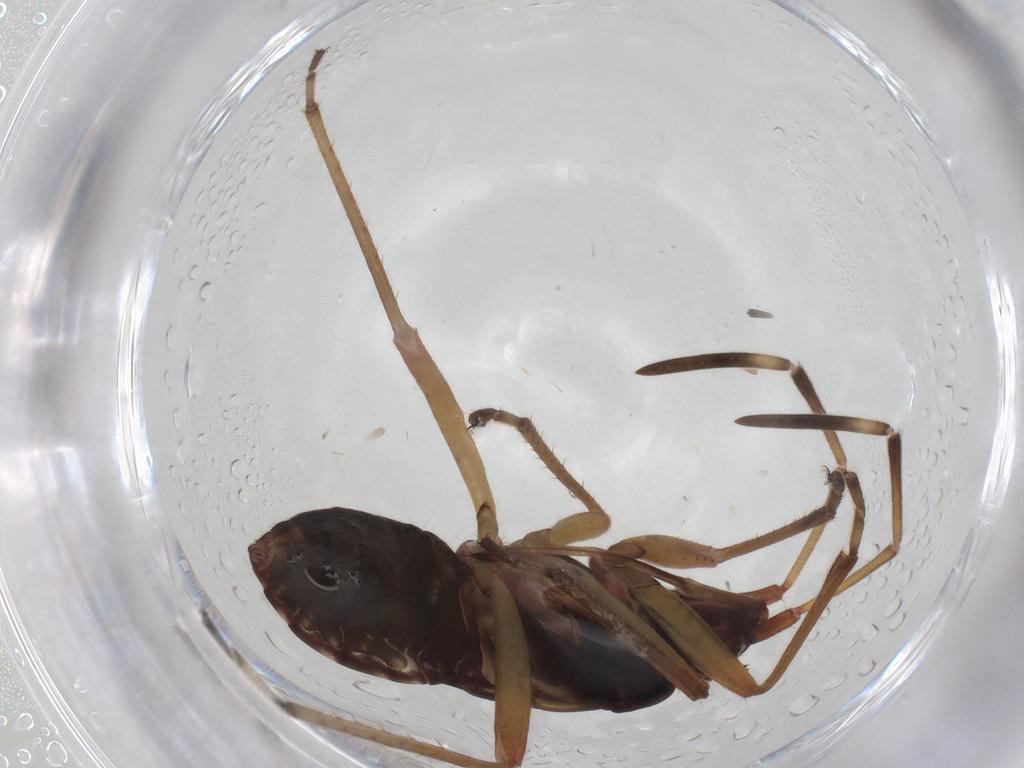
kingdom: Animalia
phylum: Arthropoda
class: Insecta
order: Hemiptera
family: Rhyparochromidae
